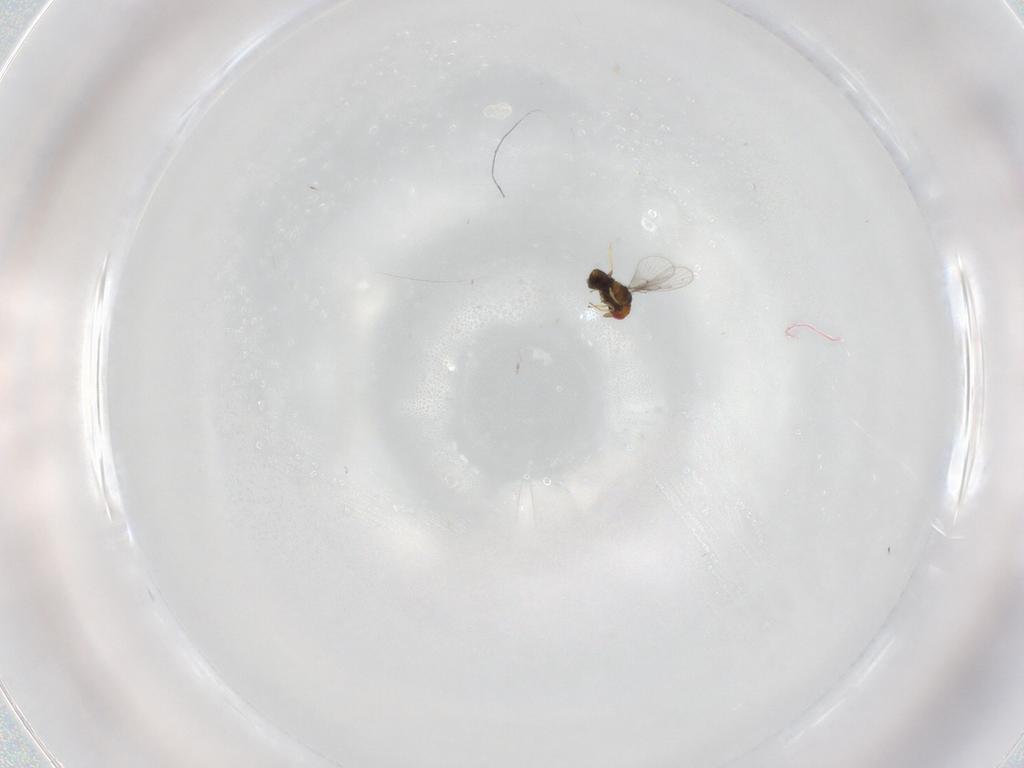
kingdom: Animalia
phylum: Arthropoda
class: Insecta
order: Hymenoptera
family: Trichogrammatidae
